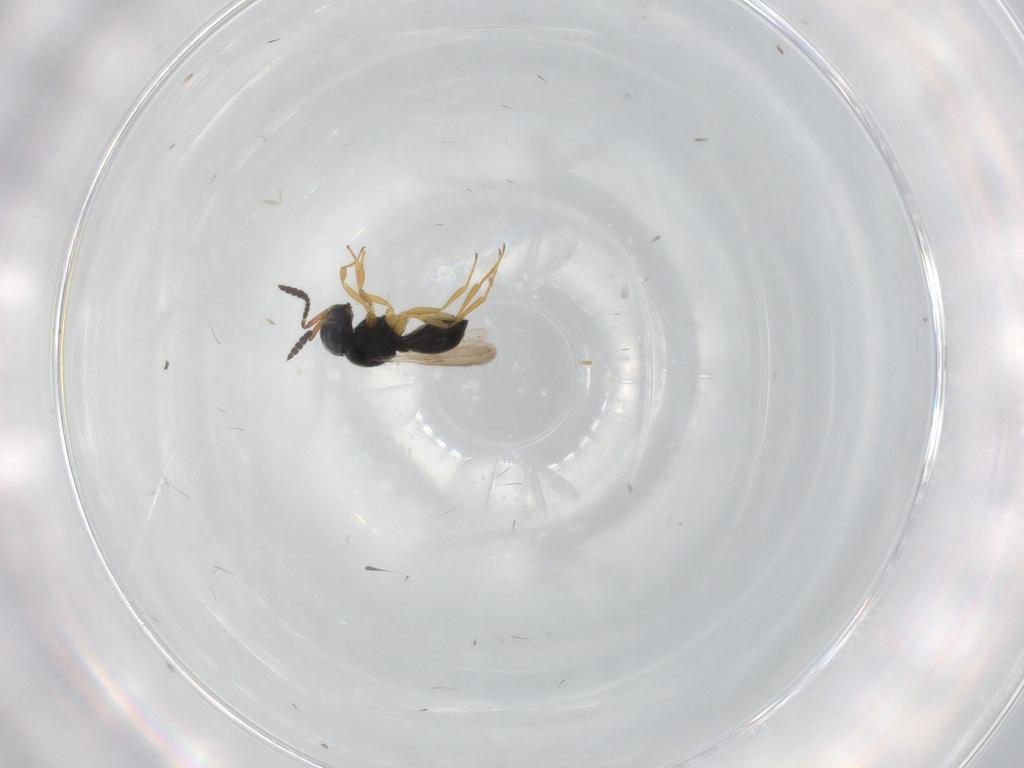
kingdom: Animalia
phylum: Arthropoda
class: Insecta
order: Hymenoptera
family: Scelionidae
